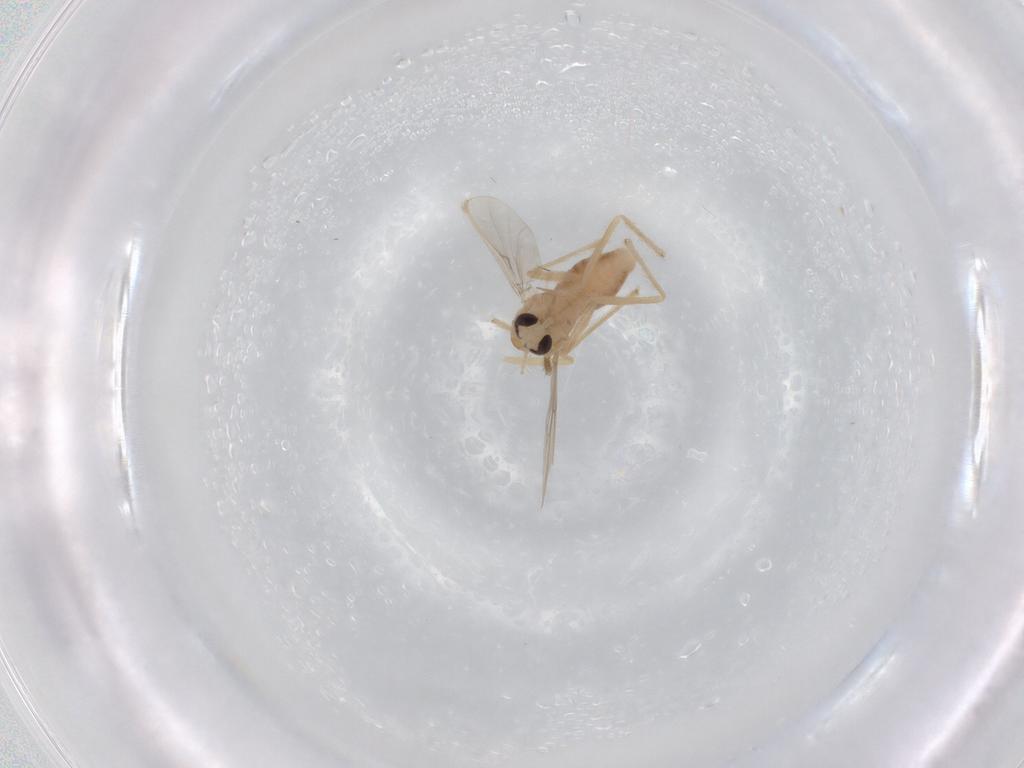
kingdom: Animalia
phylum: Arthropoda
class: Insecta
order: Diptera
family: Chironomidae
